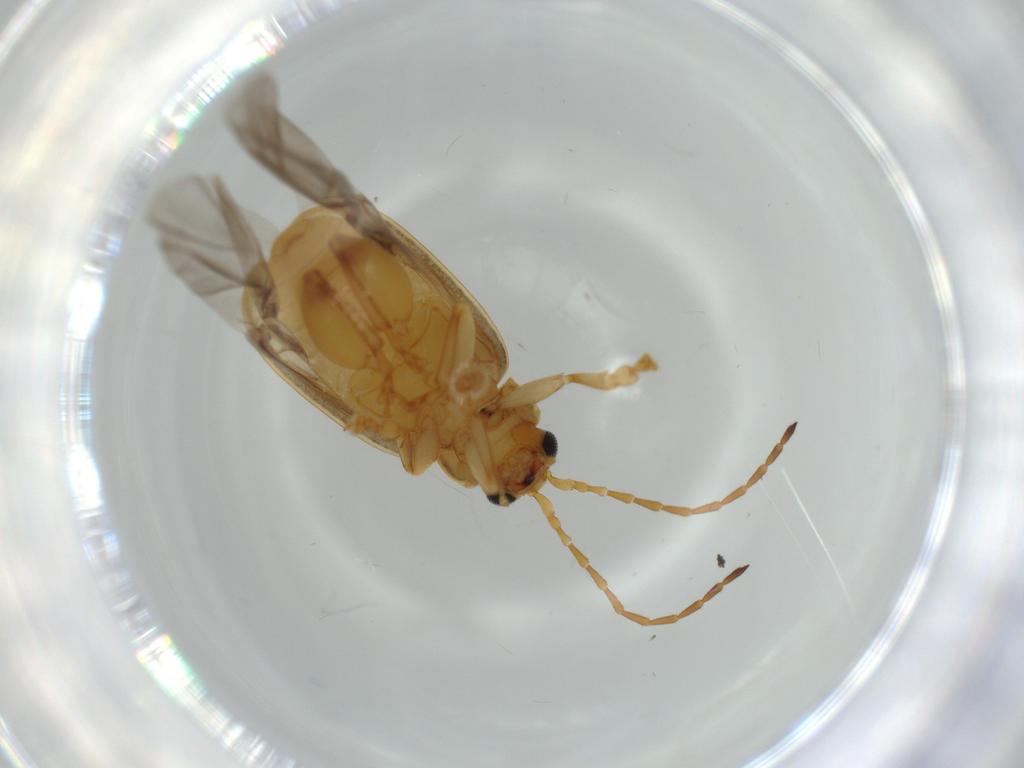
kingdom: Animalia
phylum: Arthropoda
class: Insecta
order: Coleoptera
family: Chrysomelidae
